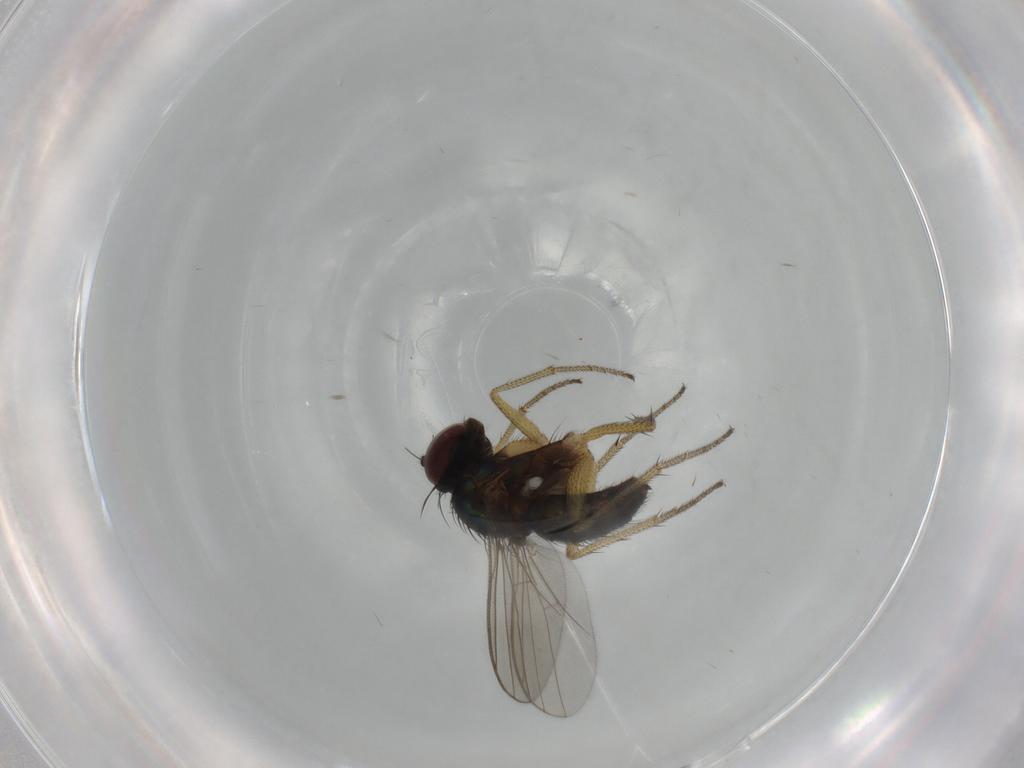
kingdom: Animalia
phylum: Arthropoda
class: Insecta
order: Diptera
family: Dolichopodidae
